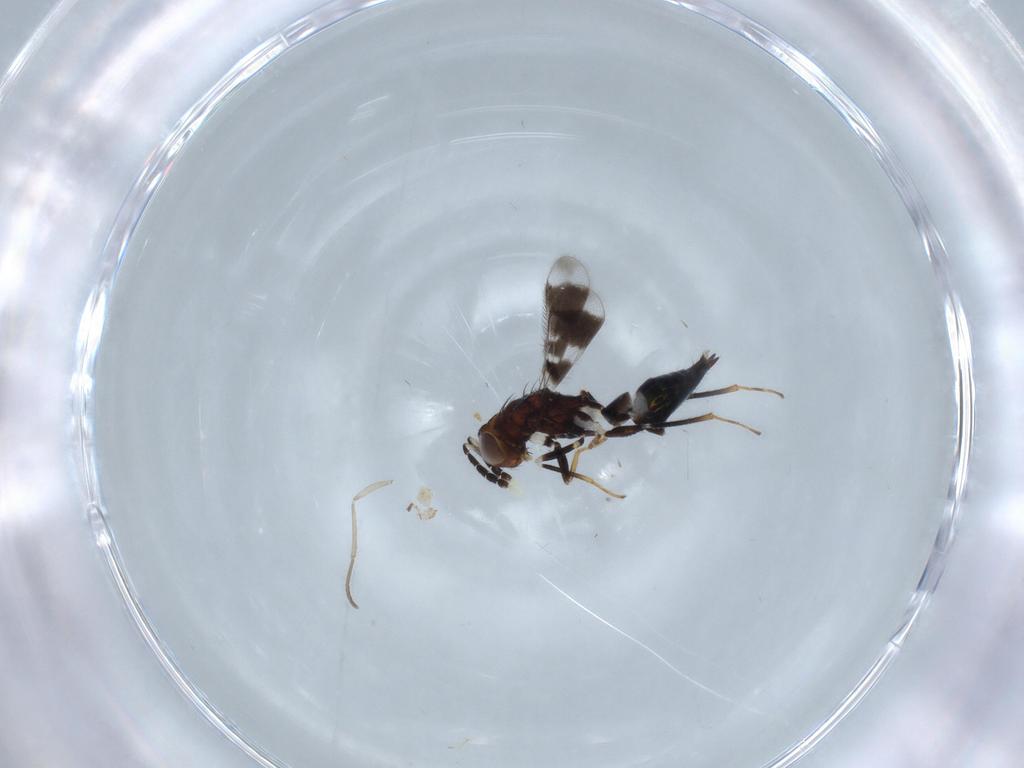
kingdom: Animalia
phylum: Arthropoda
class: Insecta
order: Hymenoptera
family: Eulophidae
